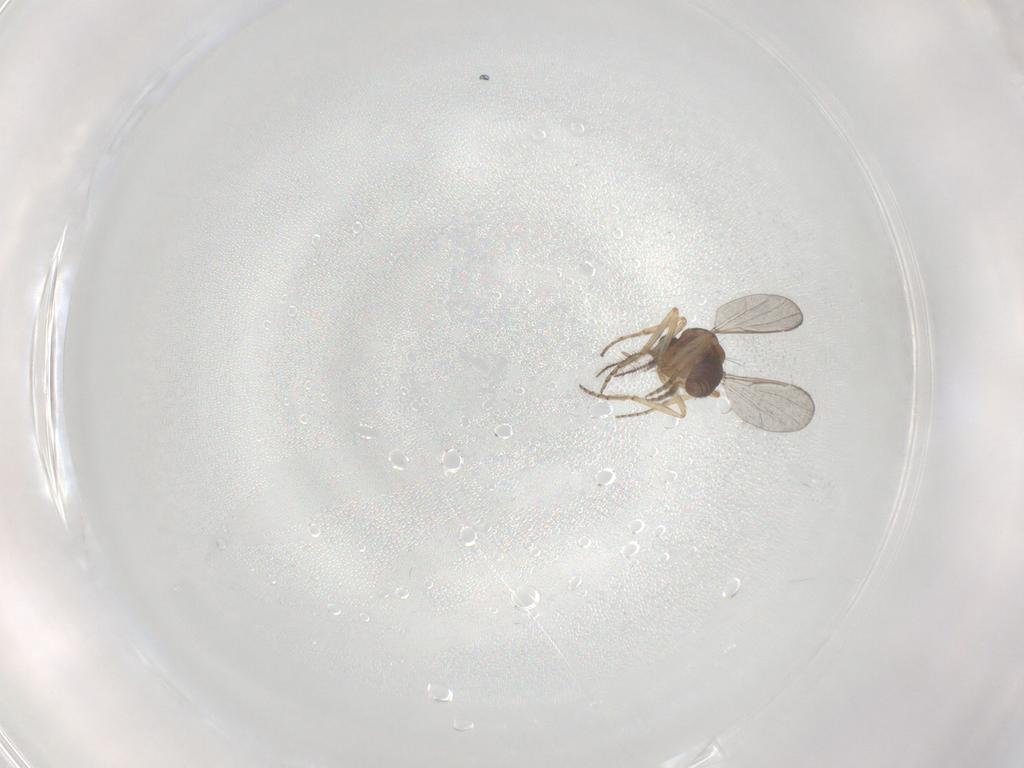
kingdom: Animalia
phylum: Arthropoda
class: Insecta
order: Diptera
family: Ceratopogonidae
